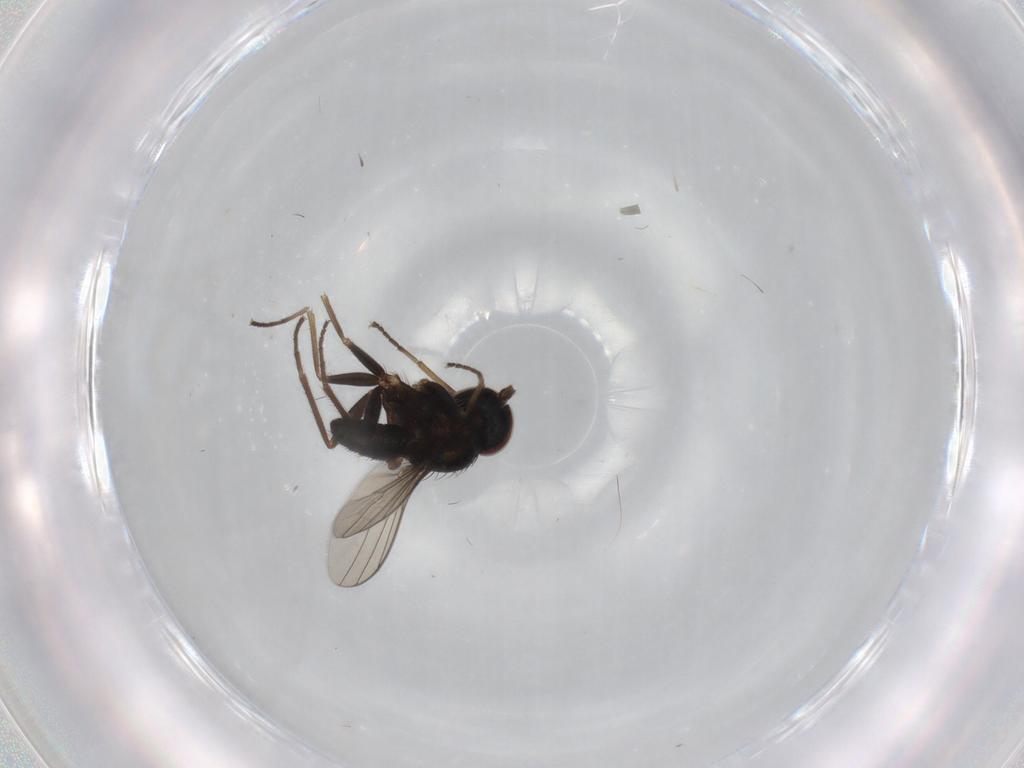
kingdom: Animalia
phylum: Arthropoda
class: Insecta
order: Diptera
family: Dolichopodidae
